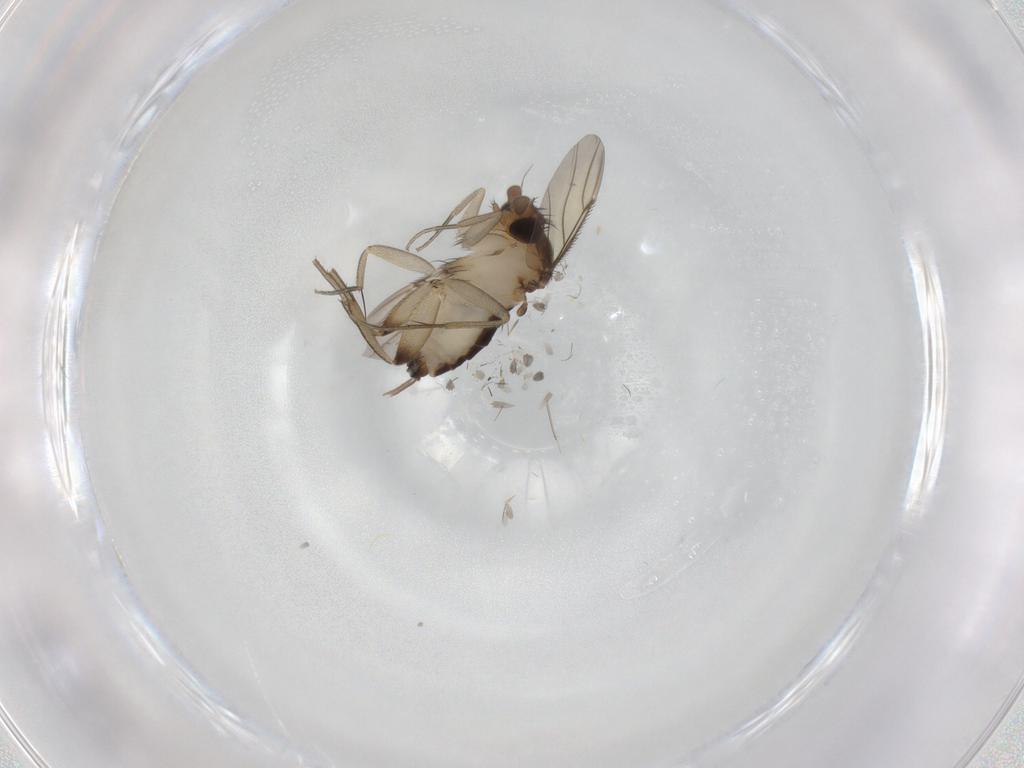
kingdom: Animalia
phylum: Arthropoda
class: Insecta
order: Diptera
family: Phoridae
